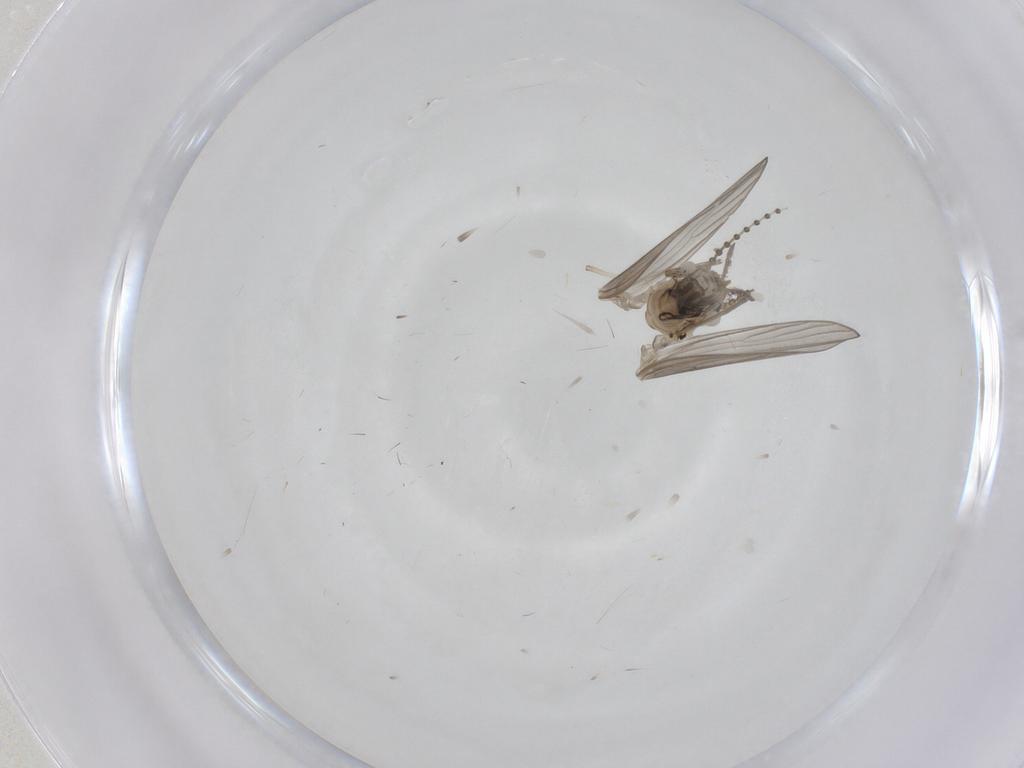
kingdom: Animalia
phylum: Arthropoda
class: Insecta
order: Diptera
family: Psychodidae
